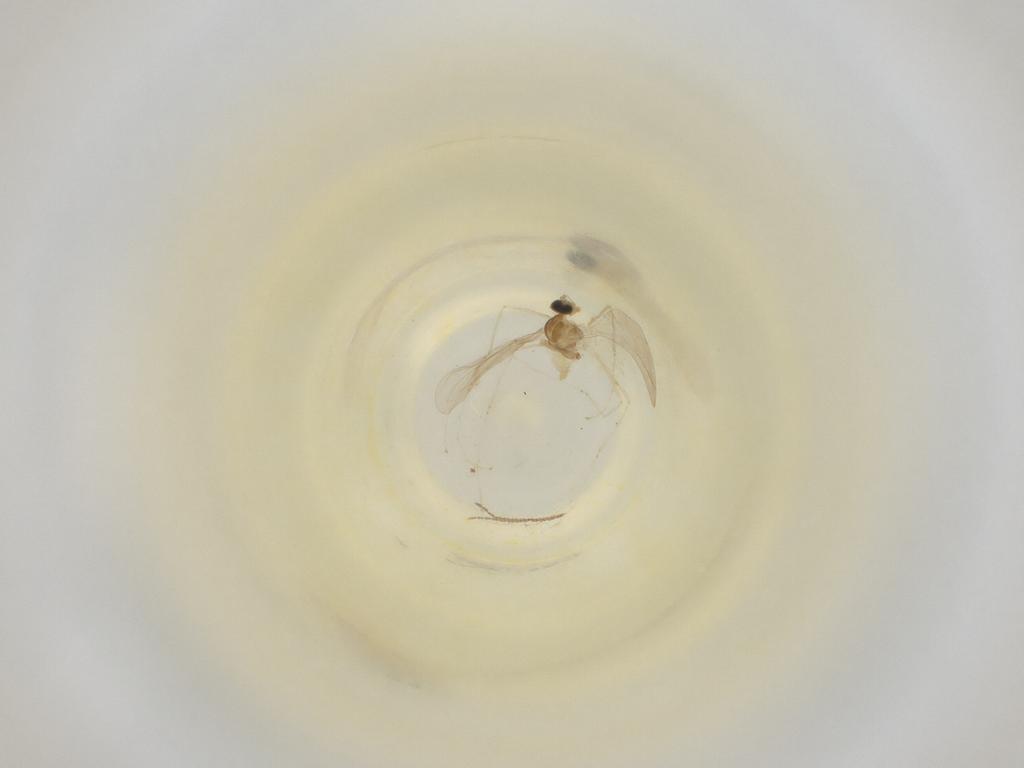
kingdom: Animalia
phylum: Arthropoda
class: Insecta
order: Diptera
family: Cecidomyiidae
